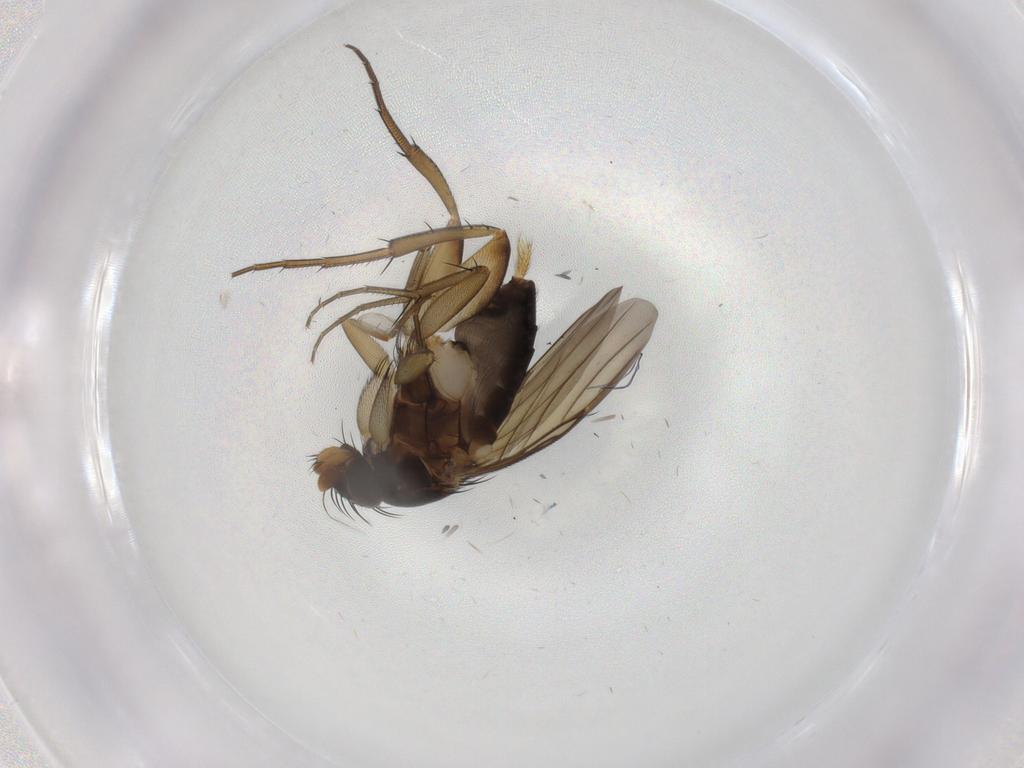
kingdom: Animalia
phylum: Arthropoda
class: Insecta
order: Diptera
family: Phoridae
